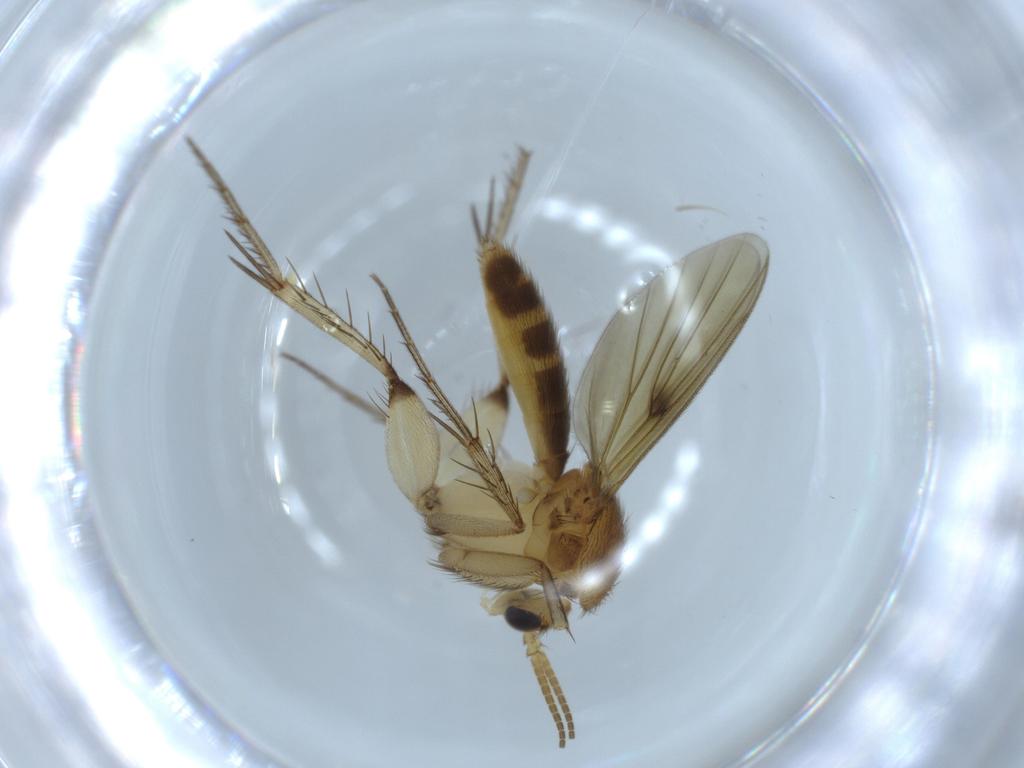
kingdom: Animalia
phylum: Arthropoda
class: Insecta
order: Diptera
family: Mycetophilidae
